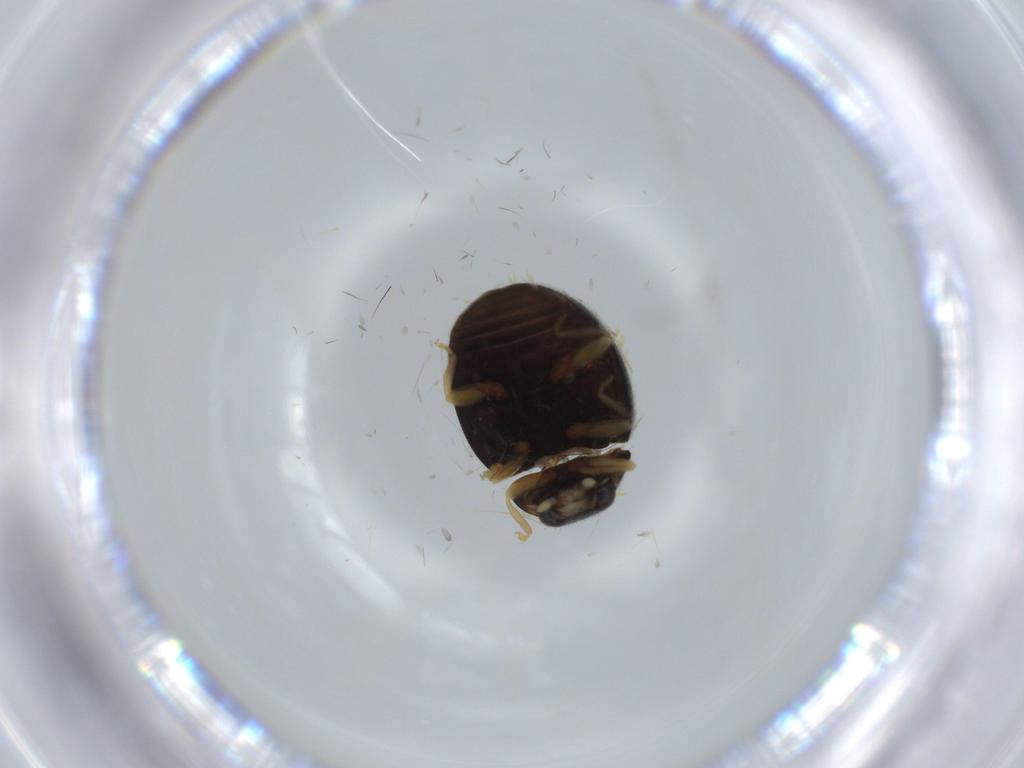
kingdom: Animalia
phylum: Arthropoda
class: Insecta
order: Coleoptera
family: Coccinellidae
